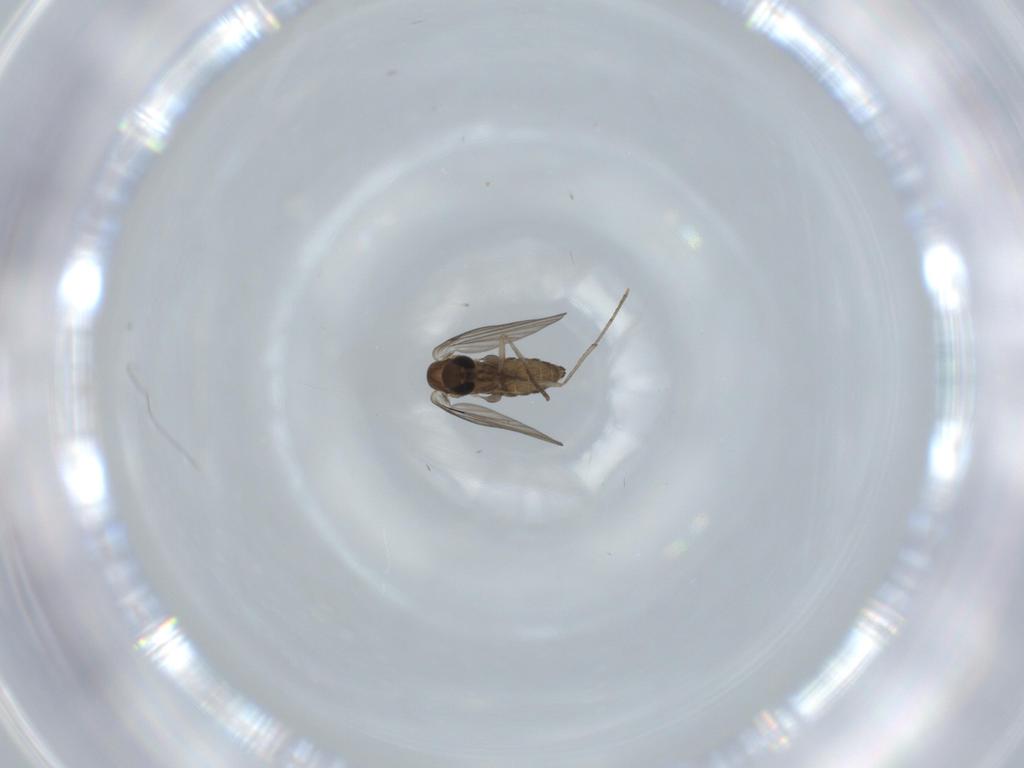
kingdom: Animalia
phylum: Arthropoda
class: Insecta
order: Diptera
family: Psychodidae
